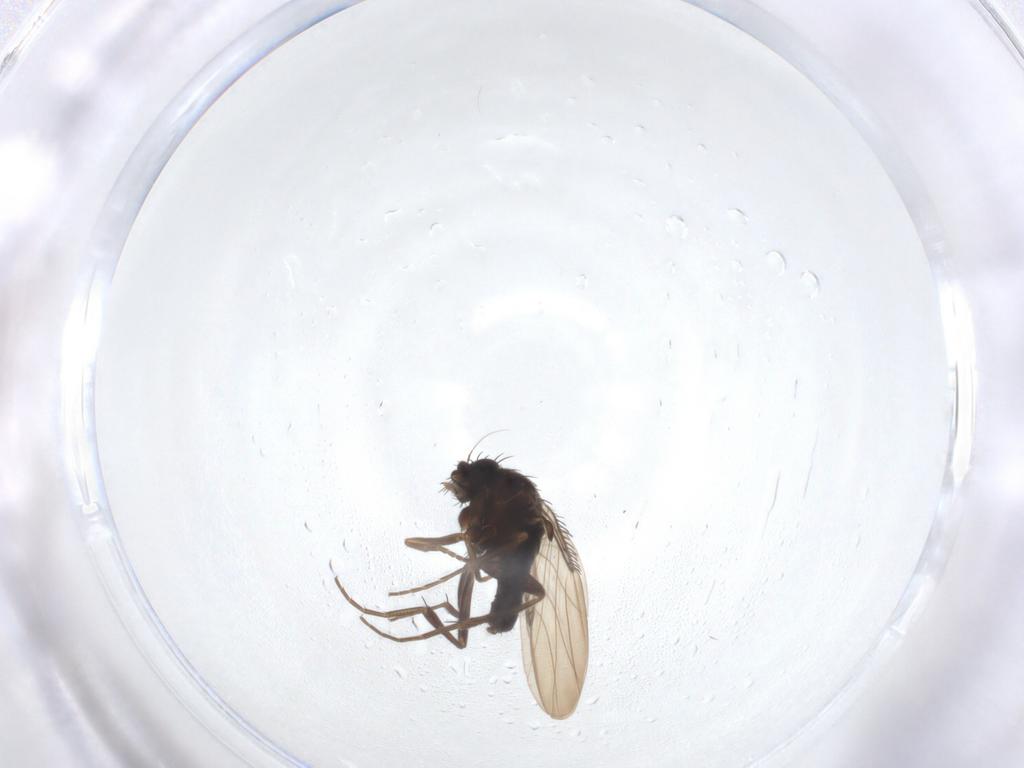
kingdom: Animalia
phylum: Arthropoda
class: Insecta
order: Diptera
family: Phoridae
